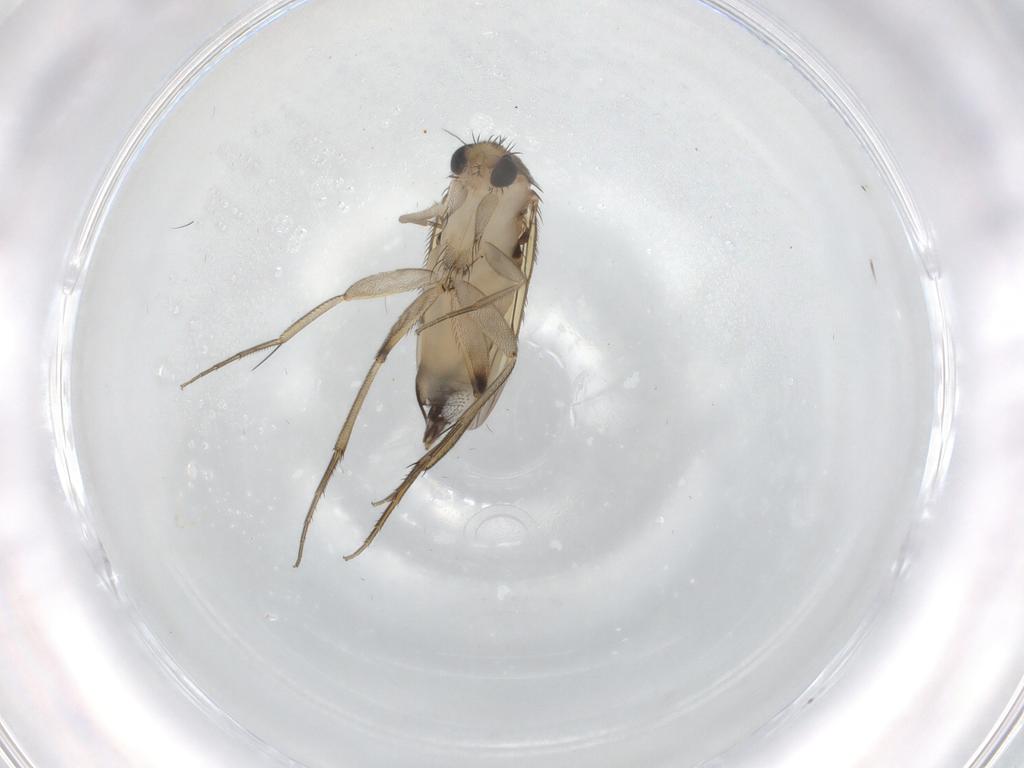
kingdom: Animalia
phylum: Arthropoda
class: Insecta
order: Diptera
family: Phoridae
